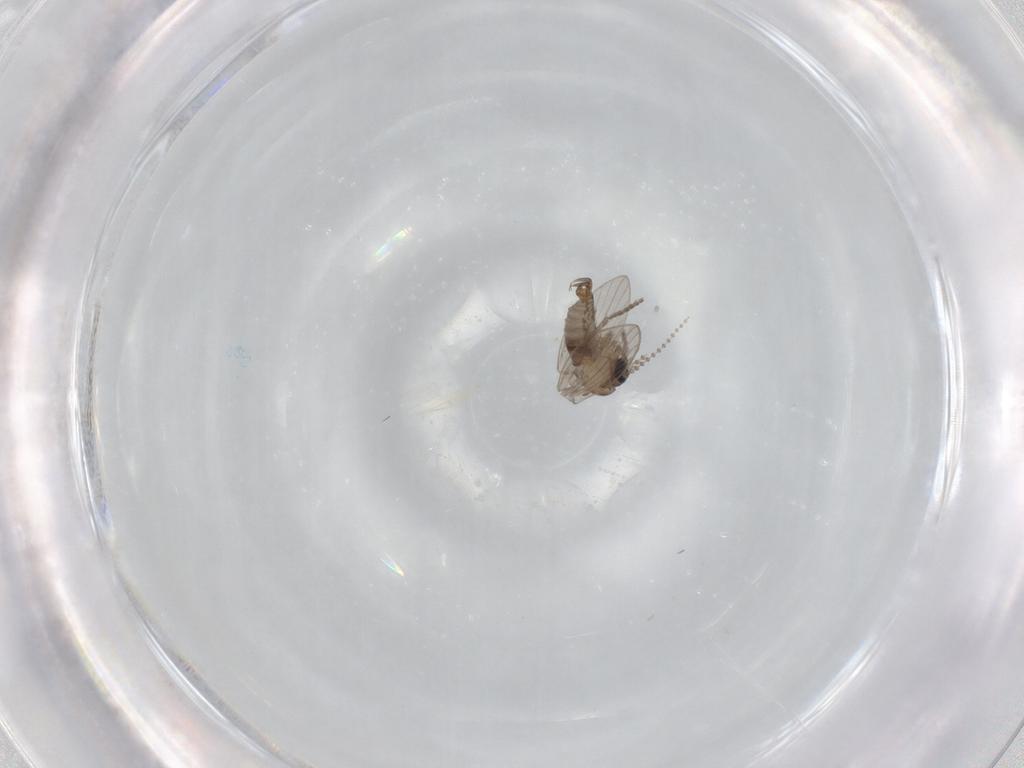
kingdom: Animalia
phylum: Arthropoda
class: Insecta
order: Diptera
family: Psychodidae
